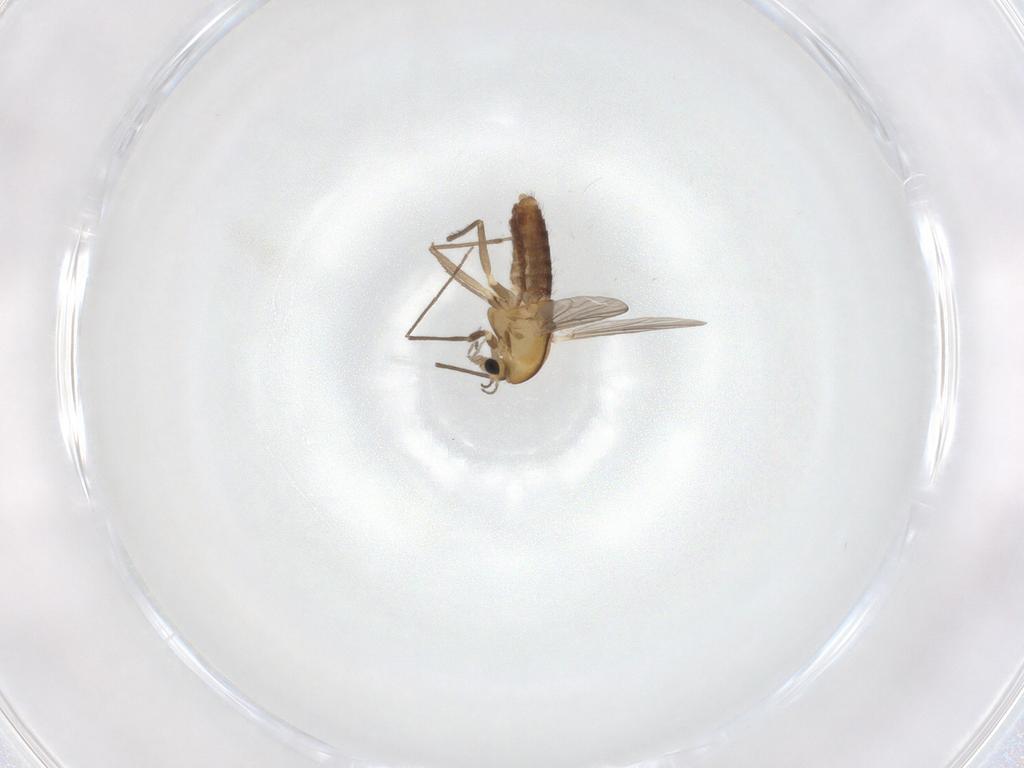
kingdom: Animalia
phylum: Arthropoda
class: Insecta
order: Diptera
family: Chironomidae
